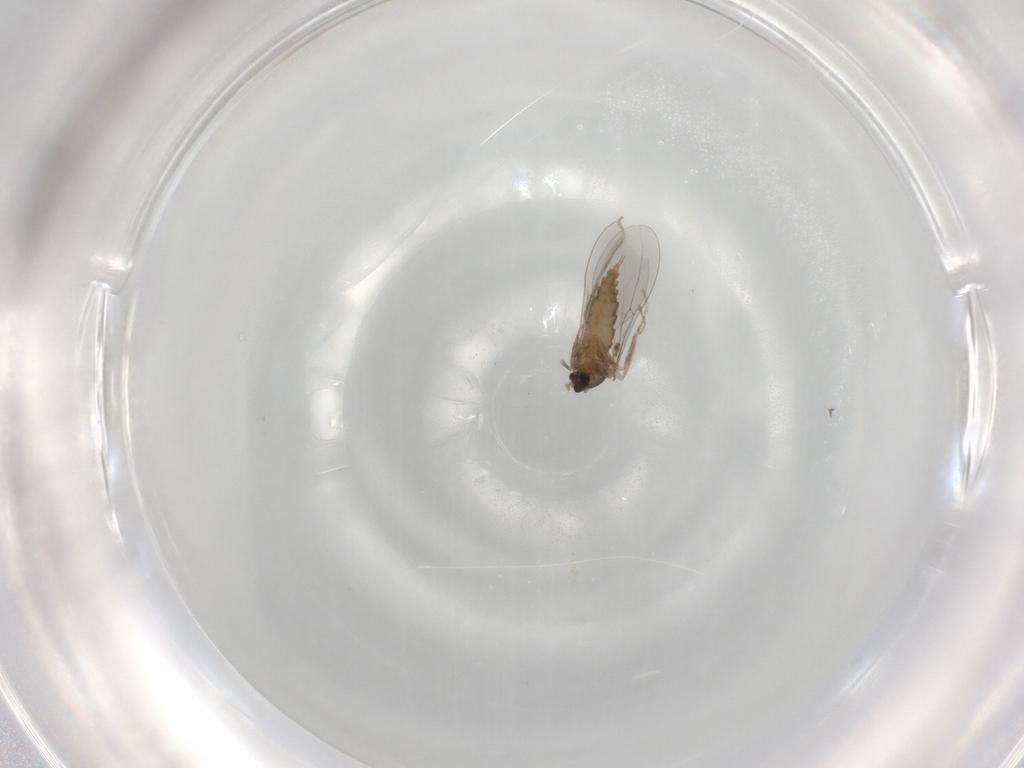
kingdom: Animalia
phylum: Arthropoda
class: Insecta
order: Diptera
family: Cecidomyiidae
